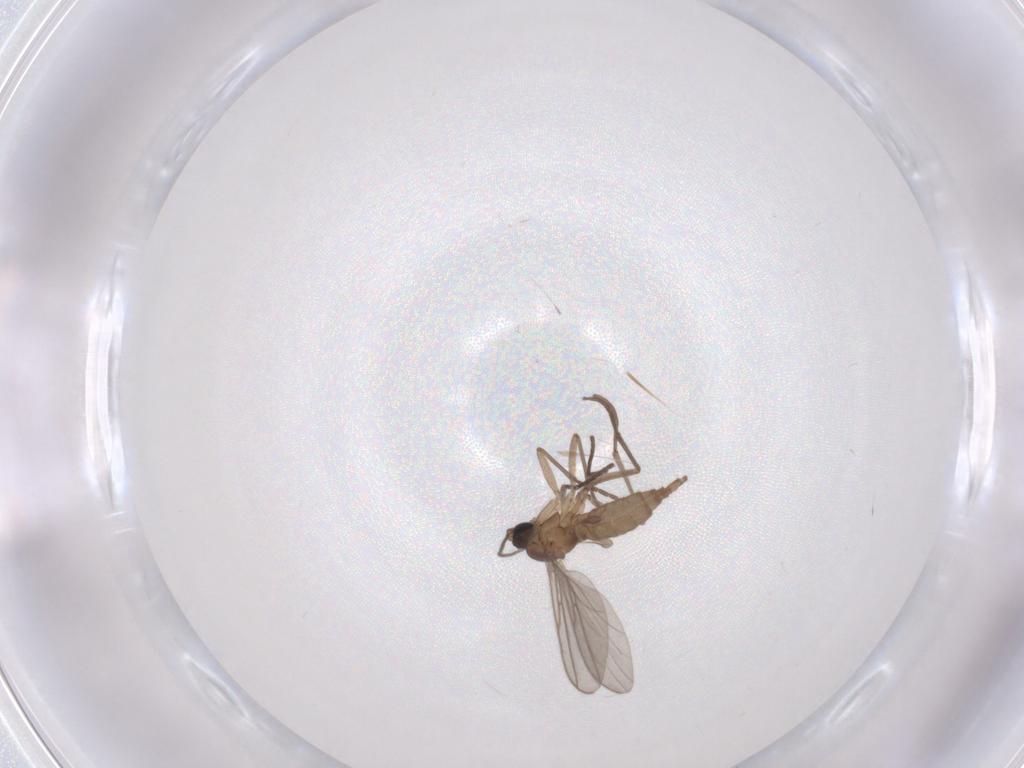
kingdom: Animalia
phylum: Arthropoda
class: Insecta
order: Diptera
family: Sciaridae
